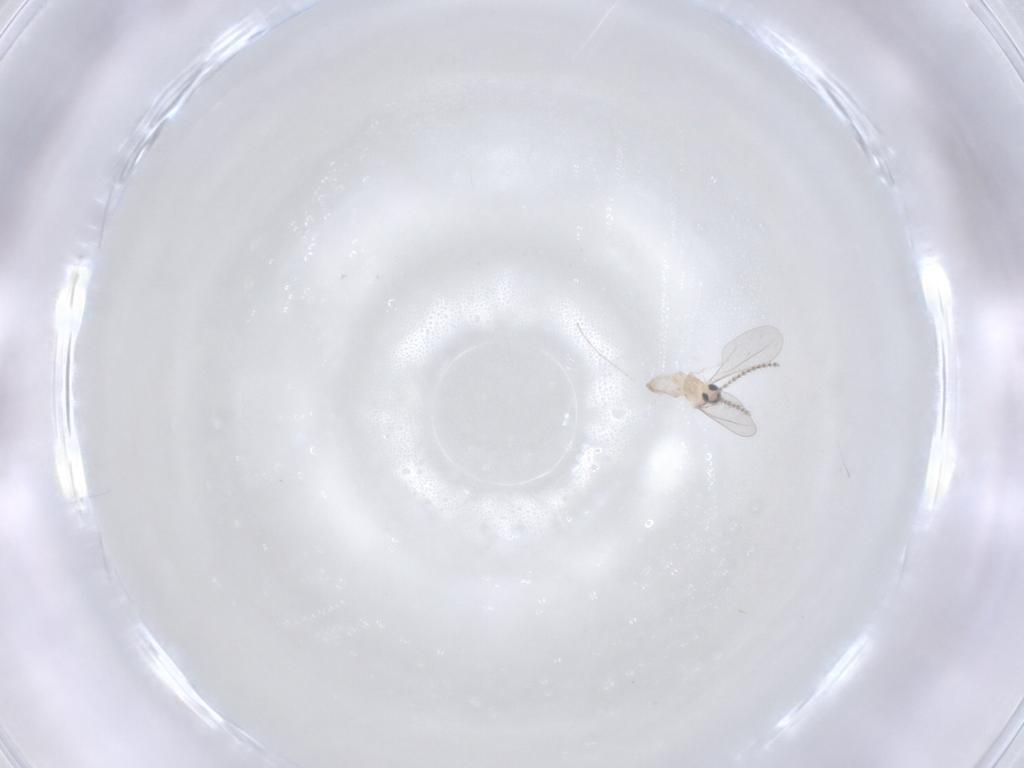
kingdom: Animalia
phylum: Arthropoda
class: Insecta
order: Diptera
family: Sciaridae
